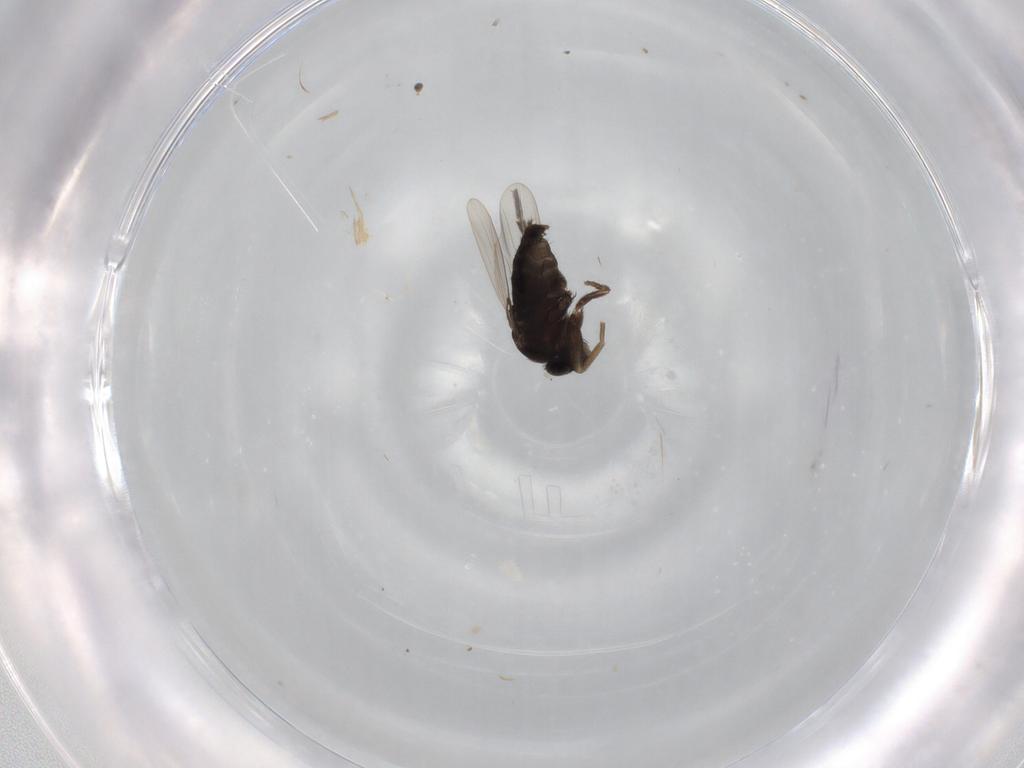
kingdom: Animalia
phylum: Arthropoda
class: Insecta
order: Diptera
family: Phoridae
